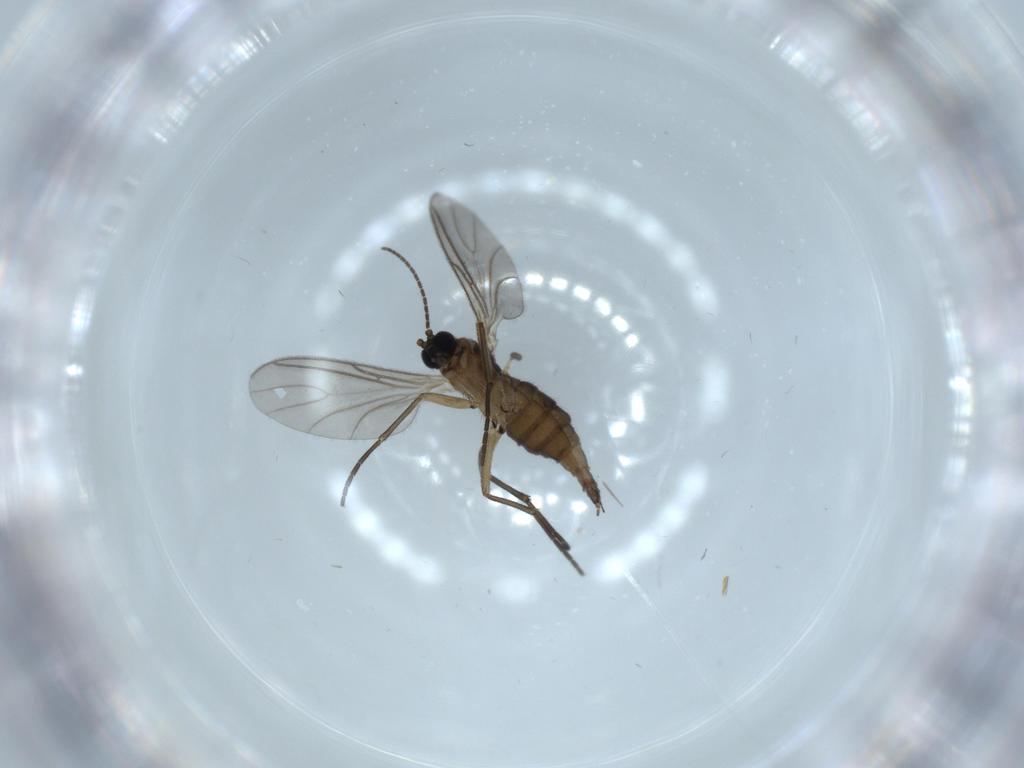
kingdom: Animalia
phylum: Arthropoda
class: Insecta
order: Diptera
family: Sciaridae
